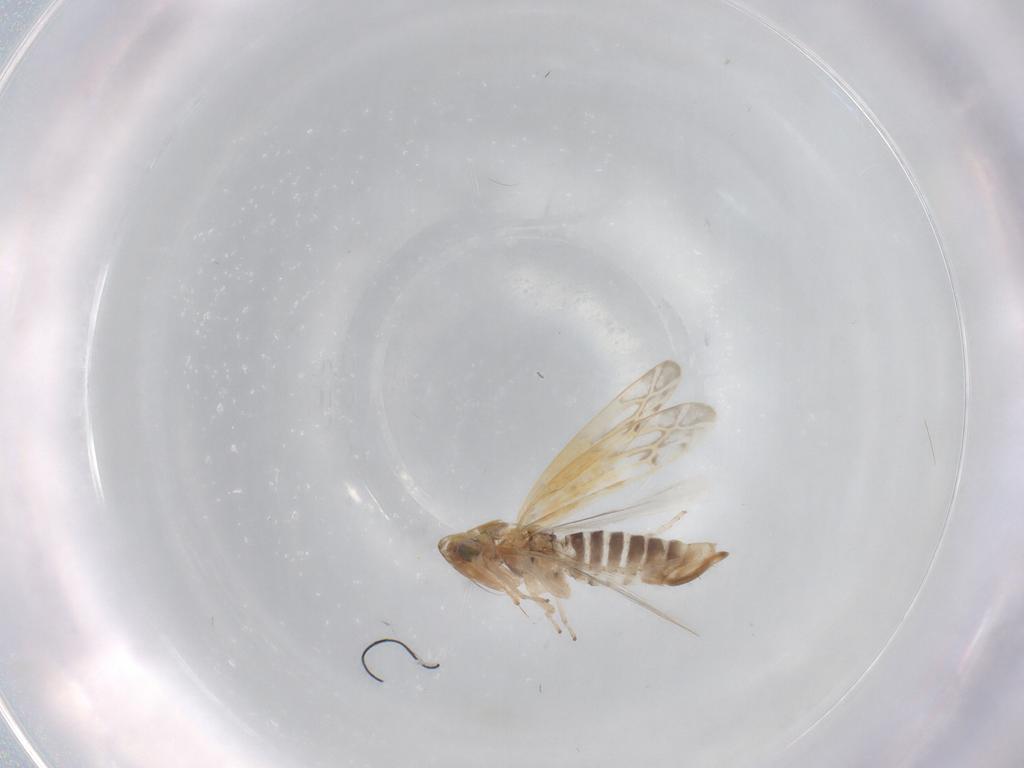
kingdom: Animalia
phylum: Arthropoda
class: Insecta
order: Hemiptera
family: Cicadellidae
